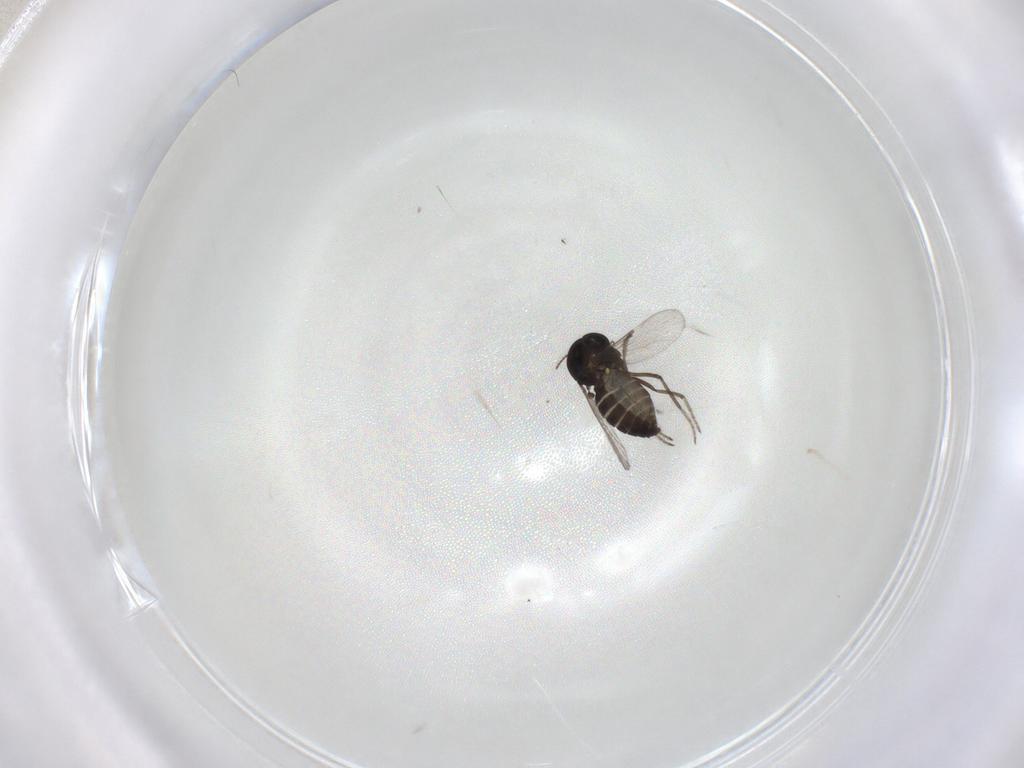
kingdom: Animalia
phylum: Arthropoda
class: Insecta
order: Diptera
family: Ceratopogonidae
